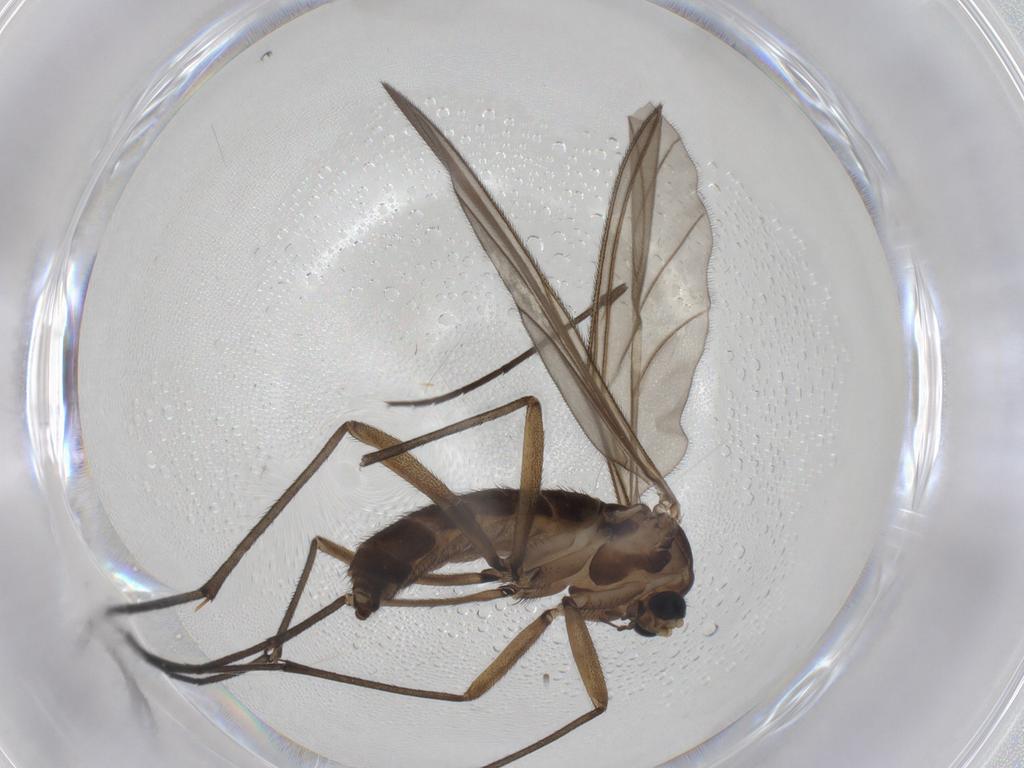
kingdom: Animalia
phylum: Arthropoda
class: Insecta
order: Diptera
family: Sciaridae
